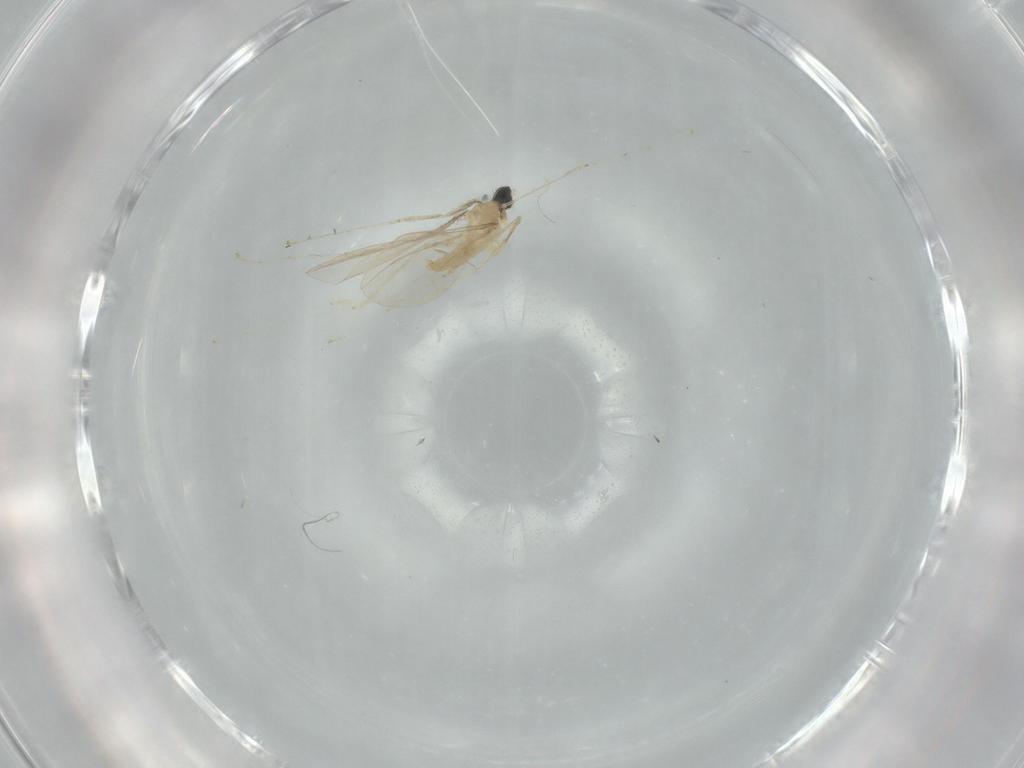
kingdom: Animalia
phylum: Arthropoda
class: Insecta
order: Diptera
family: Cecidomyiidae
